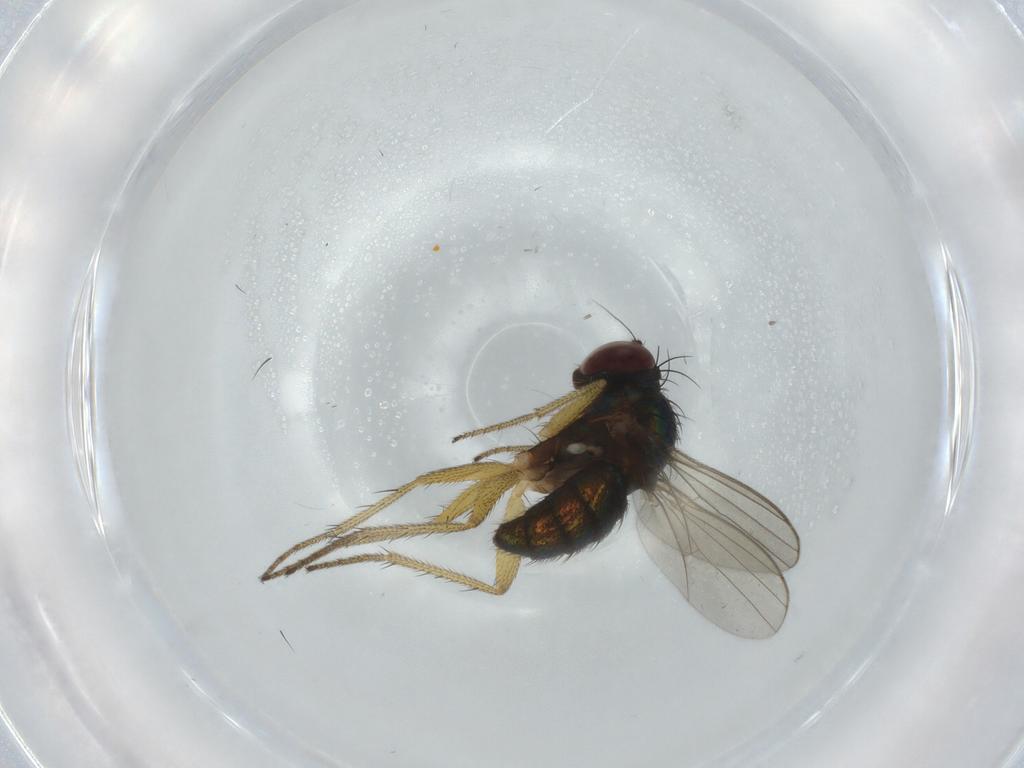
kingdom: Animalia
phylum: Arthropoda
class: Insecta
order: Diptera
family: Dolichopodidae
